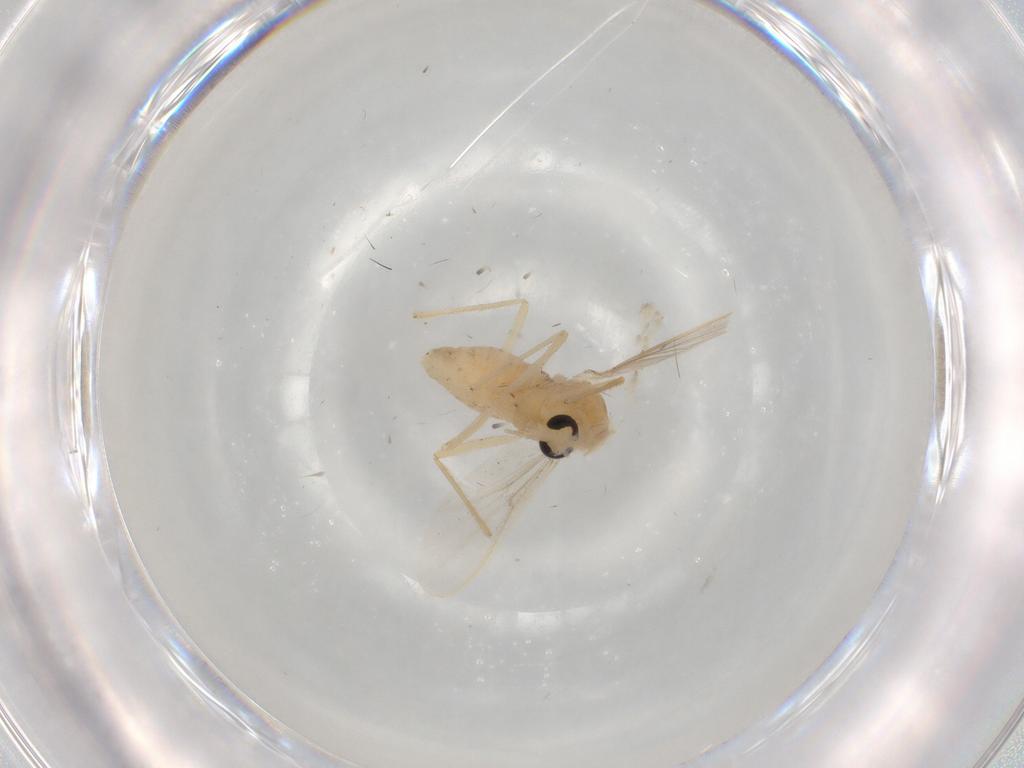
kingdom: Animalia
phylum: Arthropoda
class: Insecta
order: Diptera
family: Chironomidae
